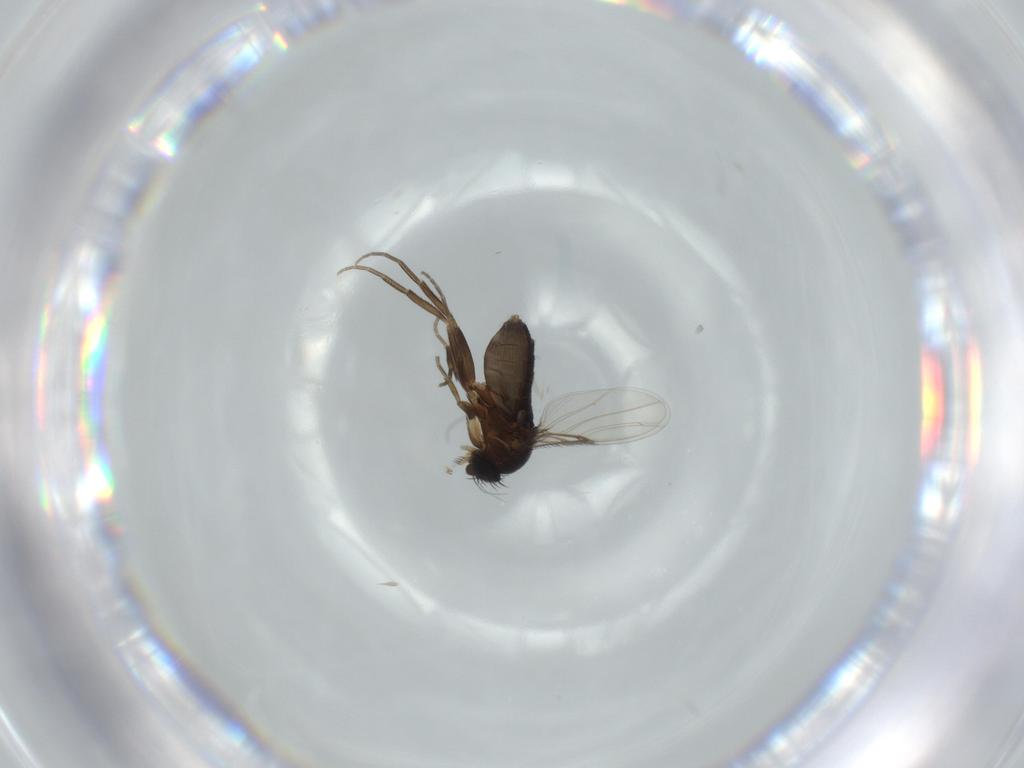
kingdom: Animalia
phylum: Arthropoda
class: Insecta
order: Diptera
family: Phoridae
